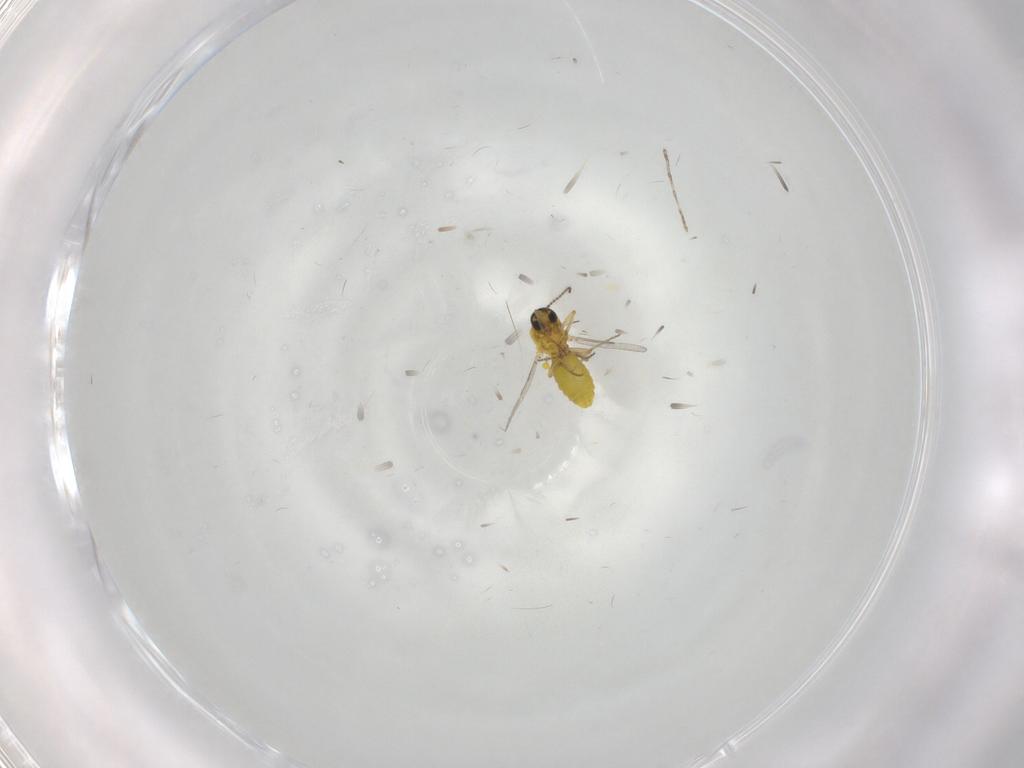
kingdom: Animalia
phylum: Arthropoda
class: Insecta
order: Diptera
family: Ceratopogonidae
